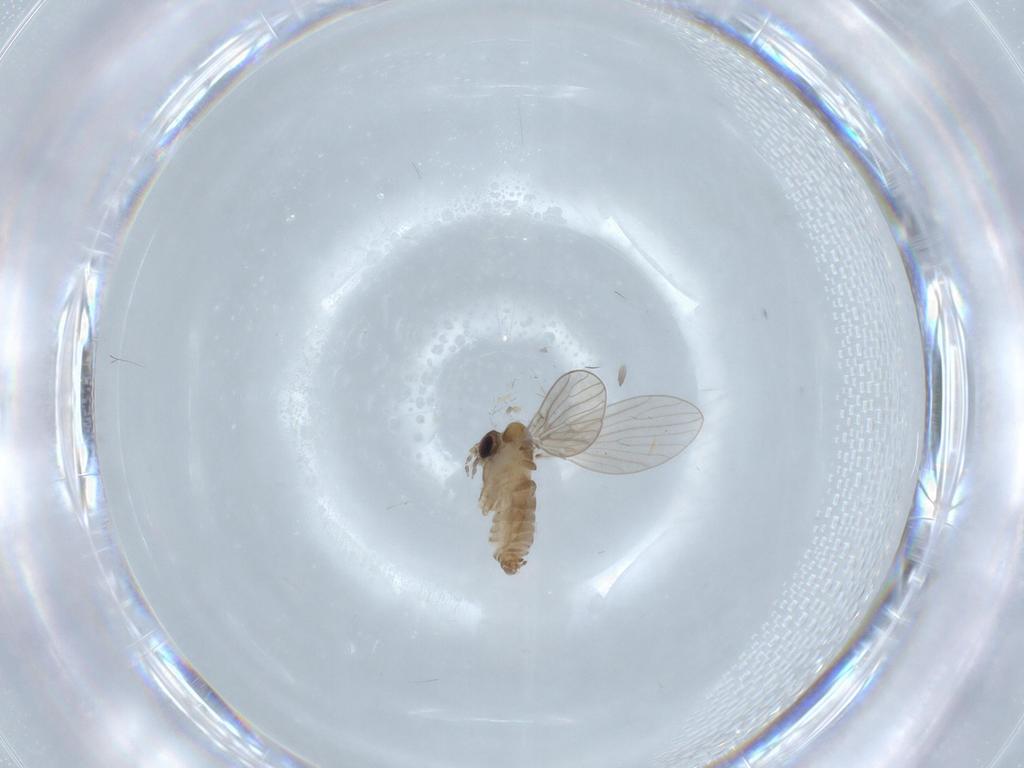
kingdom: Animalia
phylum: Arthropoda
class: Insecta
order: Diptera
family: Psychodidae
